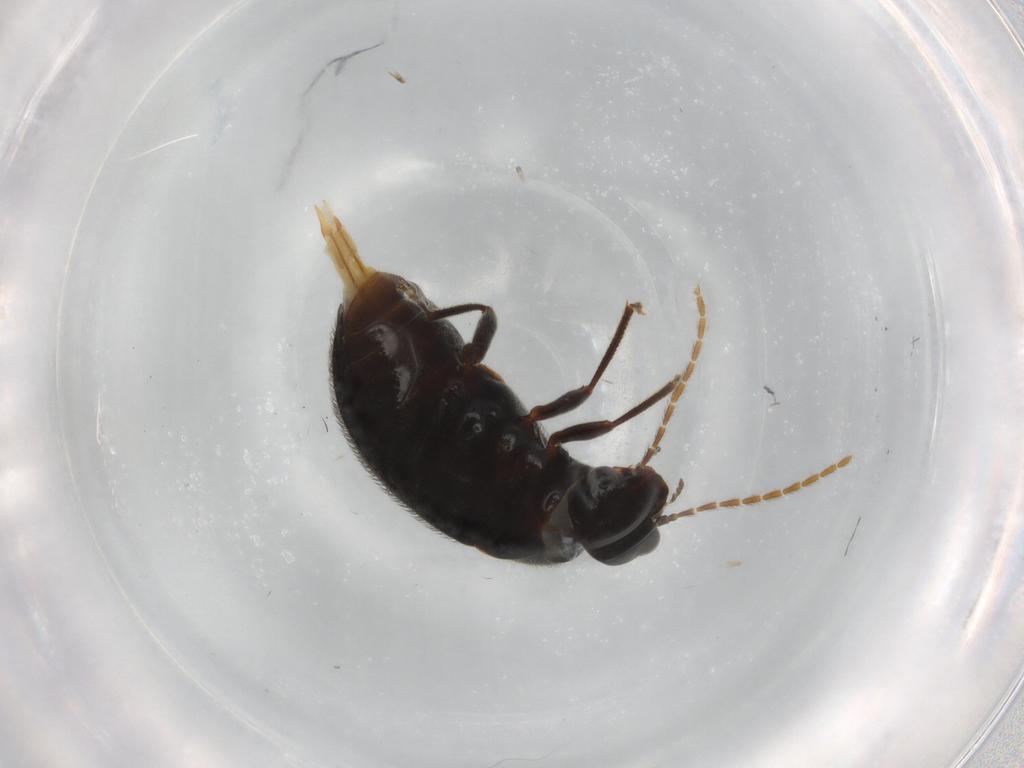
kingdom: Animalia
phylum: Arthropoda
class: Insecta
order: Coleoptera
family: Ptilodactylidae
